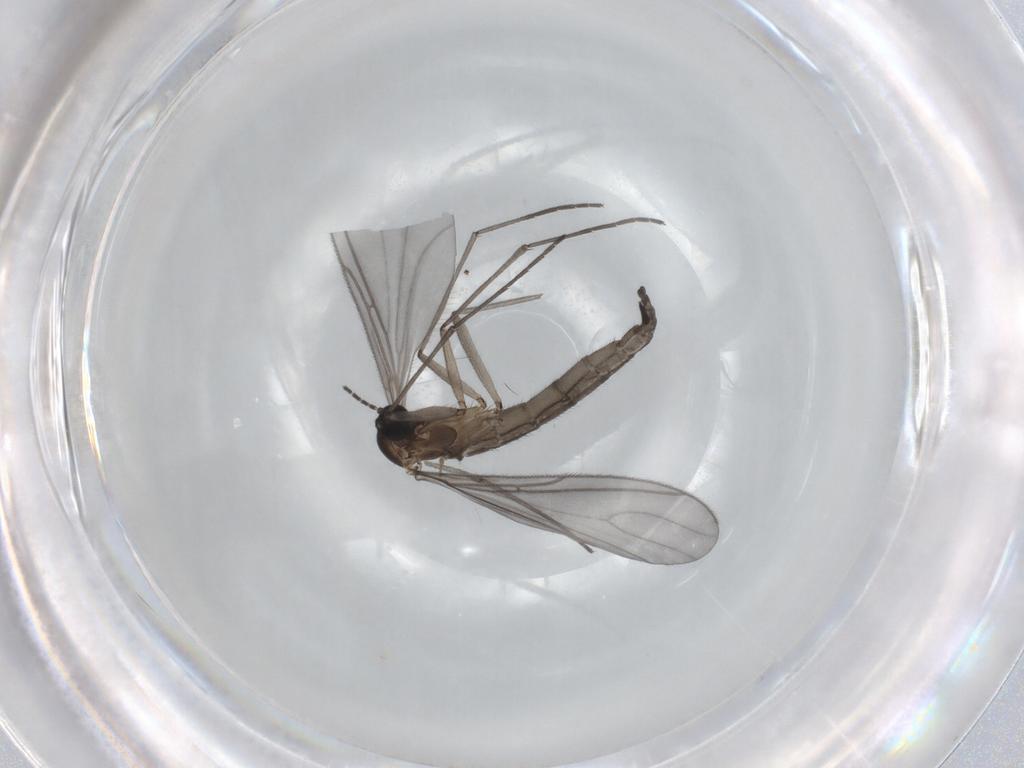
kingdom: Animalia
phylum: Arthropoda
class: Insecta
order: Diptera
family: Sciaridae
